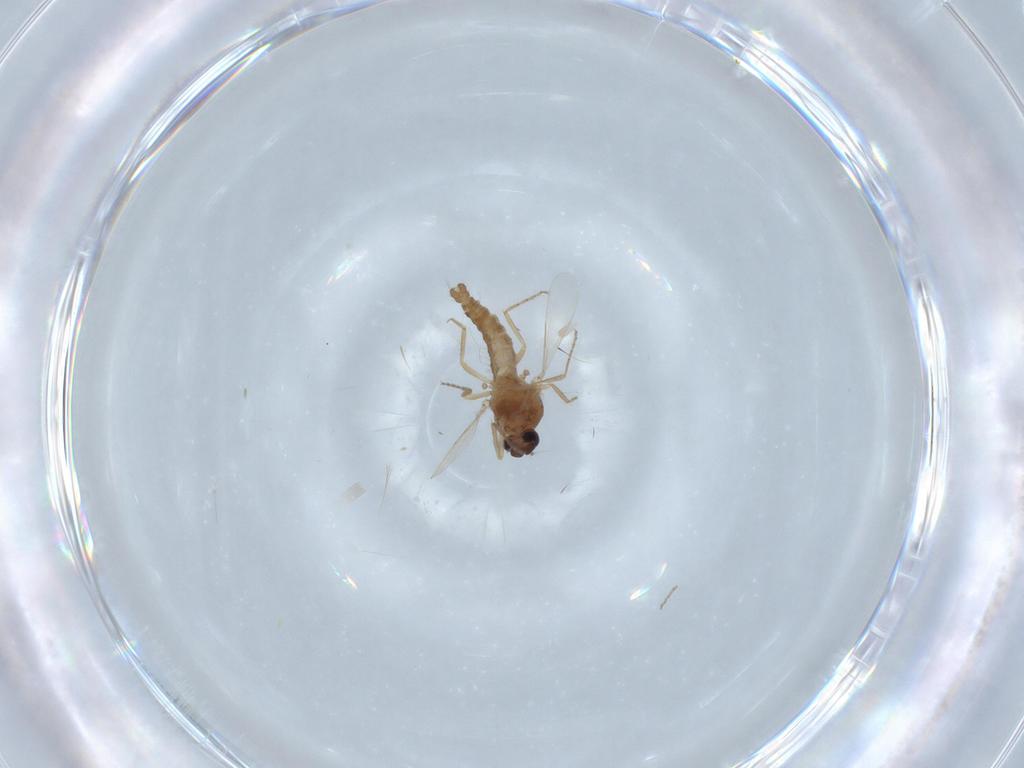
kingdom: Animalia
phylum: Arthropoda
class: Insecta
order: Diptera
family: Ceratopogonidae
